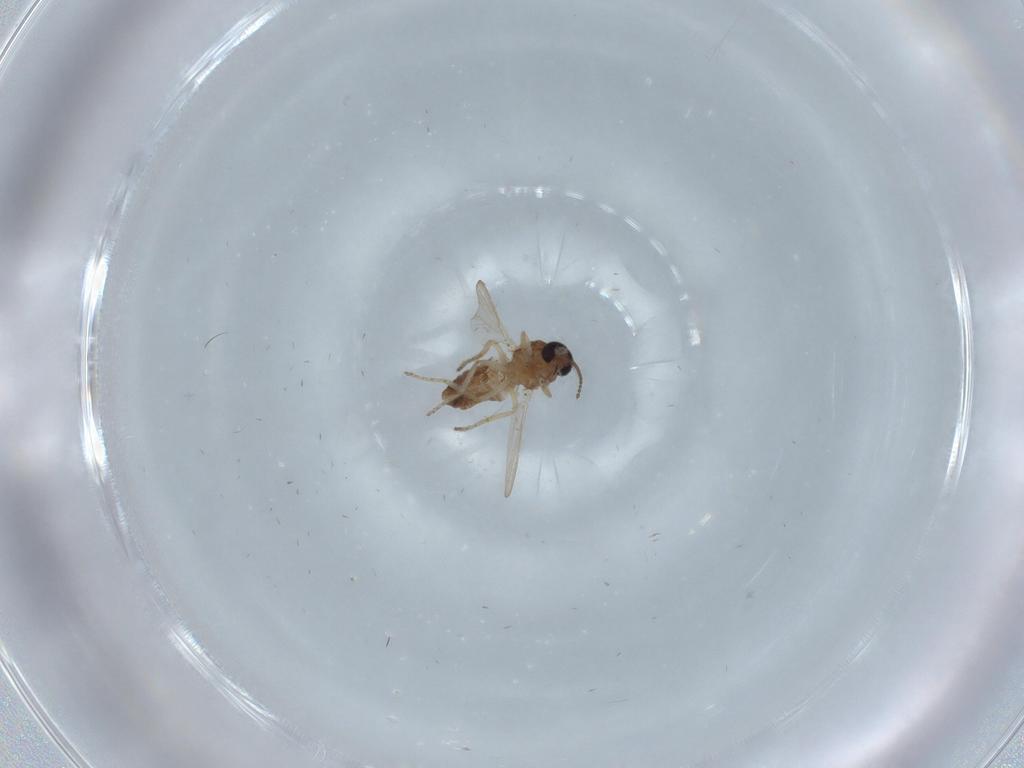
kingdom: Animalia
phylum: Arthropoda
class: Insecta
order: Diptera
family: Ceratopogonidae
